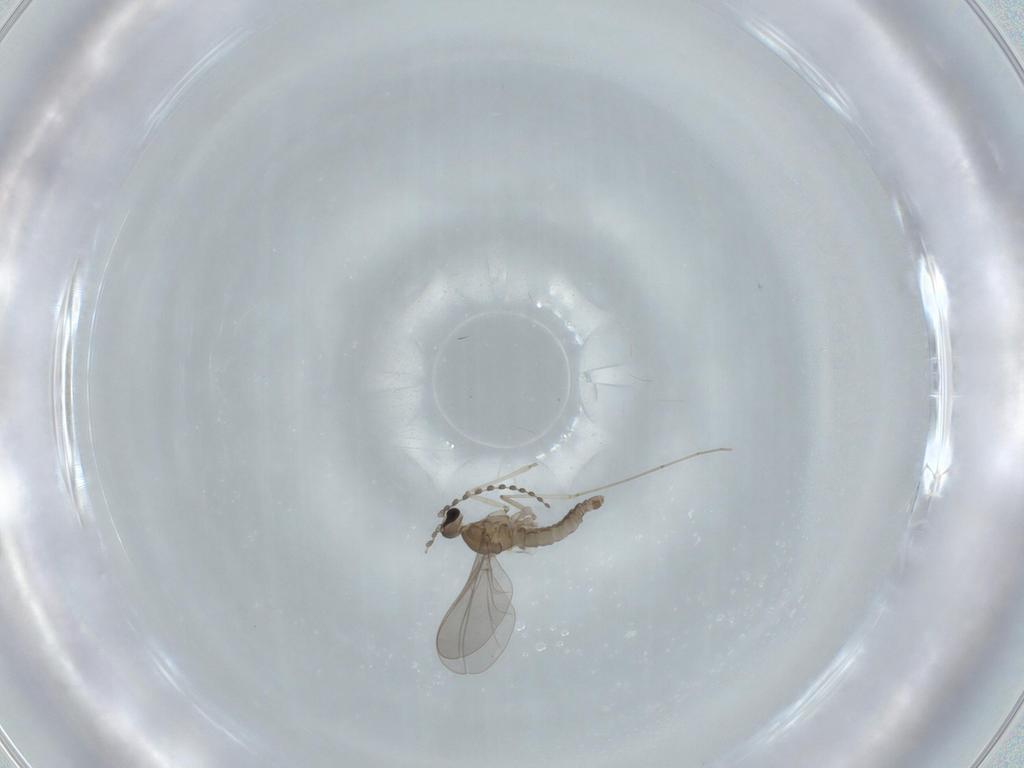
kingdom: Animalia
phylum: Arthropoda
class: Insecta
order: Diptera
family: Cecidomyiidae
